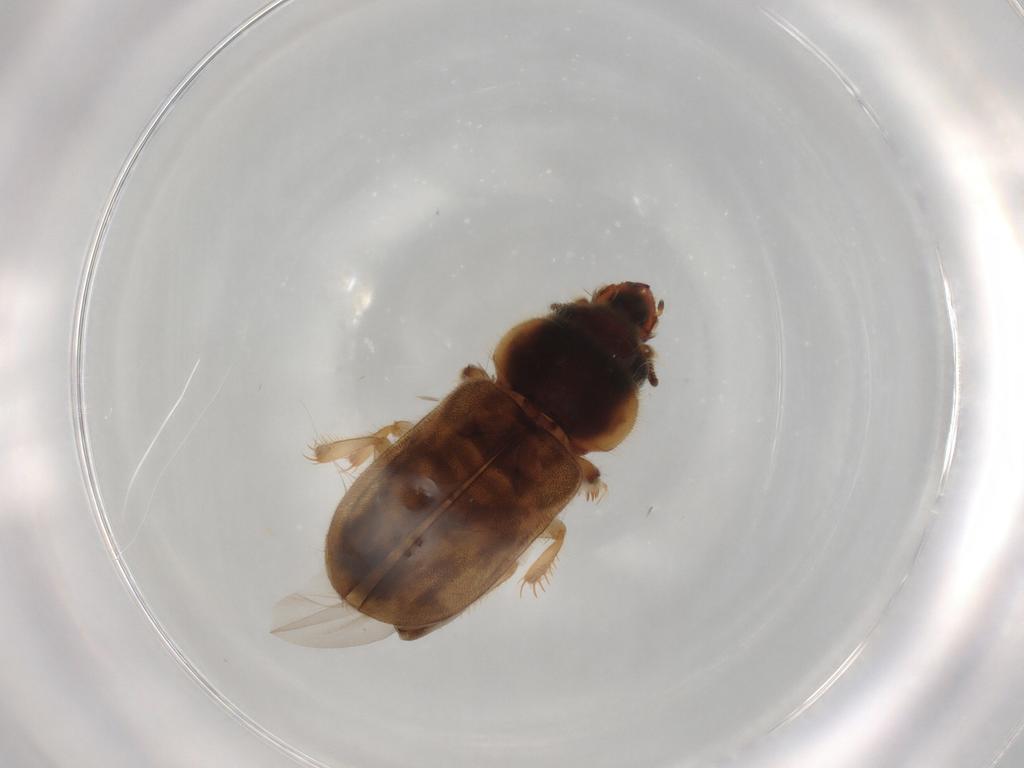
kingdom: Animalia
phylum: Arthropoda
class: Insecta
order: Coleoptera
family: Heteroceridae
